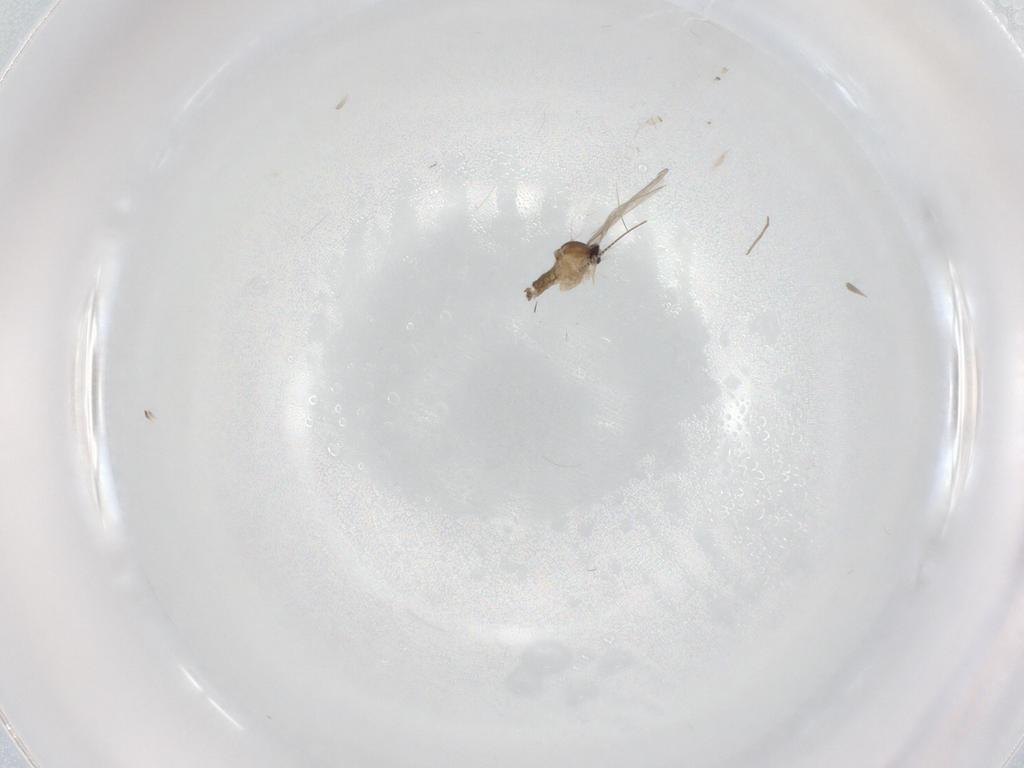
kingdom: Animalia
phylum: Arthropoda
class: Insecta
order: Diptera
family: Cecidomyiidae
